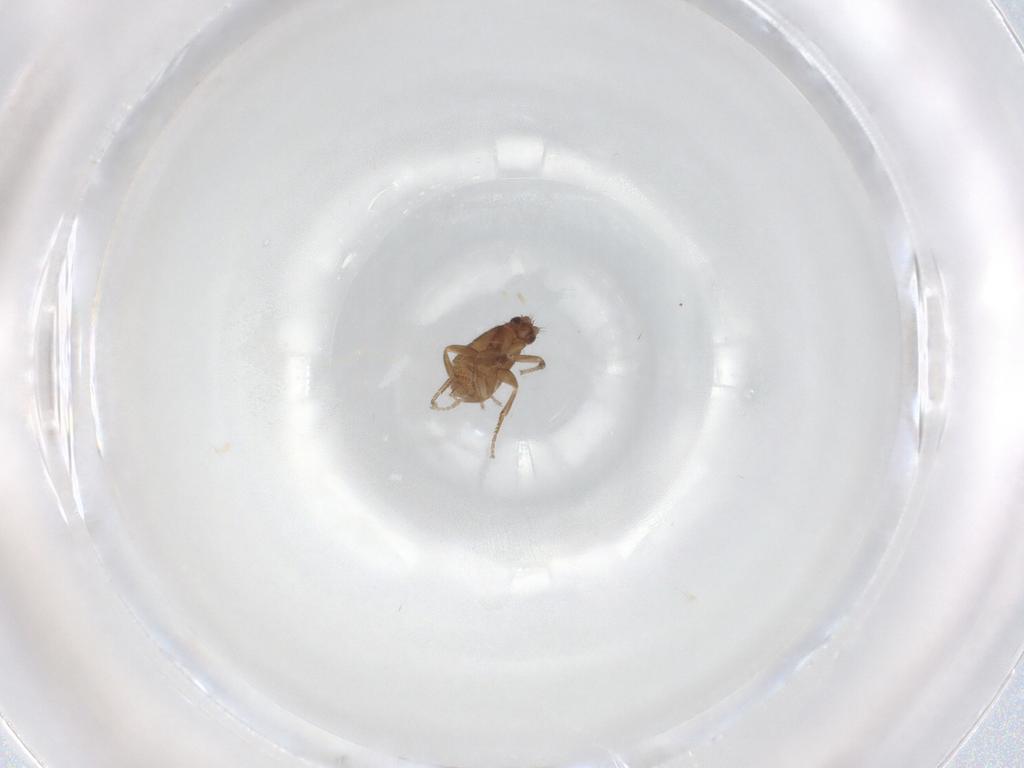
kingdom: Animalia
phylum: Arthropoda
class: Insecta
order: Diptera
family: Phoridae
